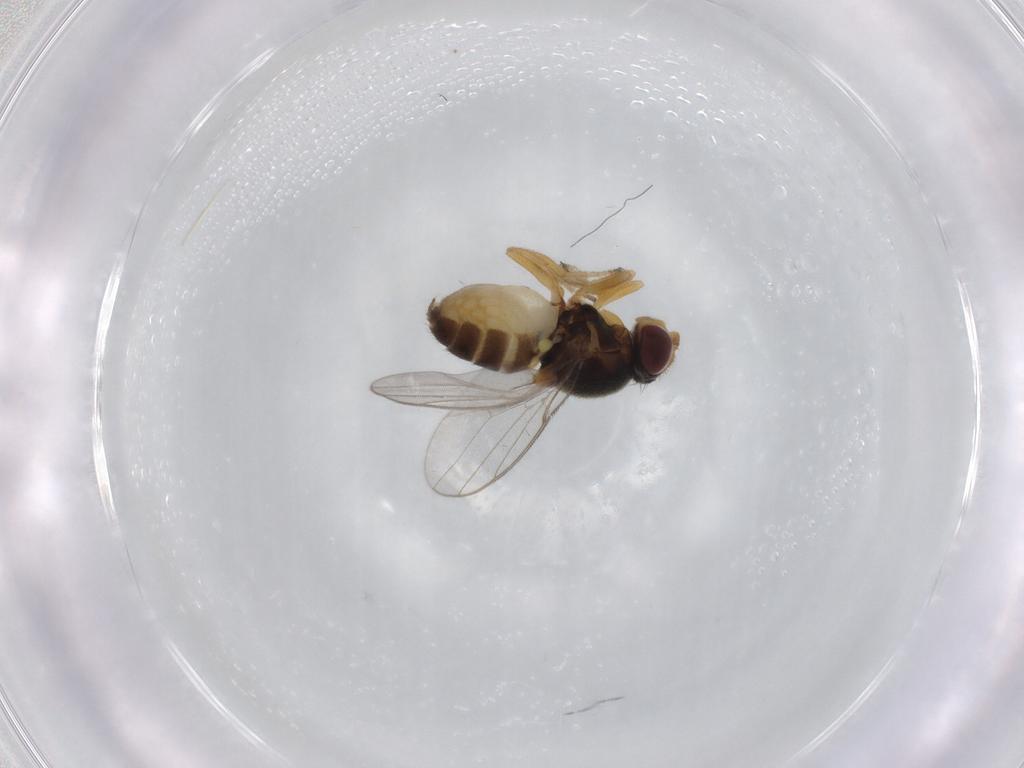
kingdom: Animalia
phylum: Arthropoda
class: Insecta
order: Diptera
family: Chloropidae
